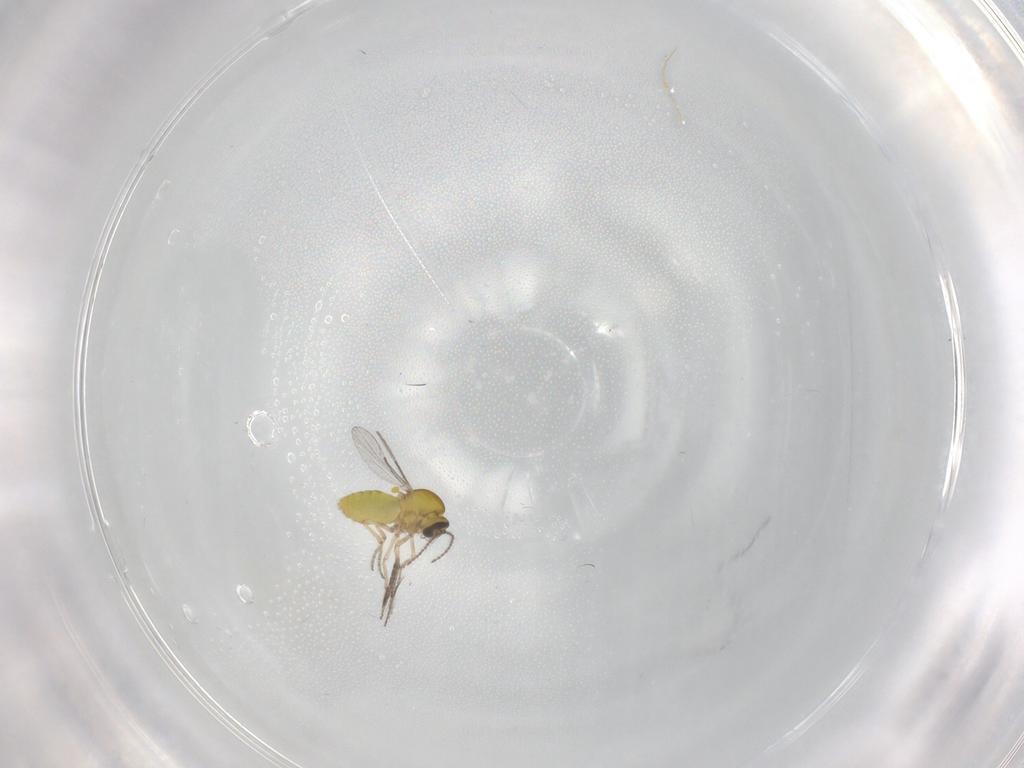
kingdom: Animalia
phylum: Arthropoda
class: Insecta
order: Diptera
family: Ceratopogonidae
